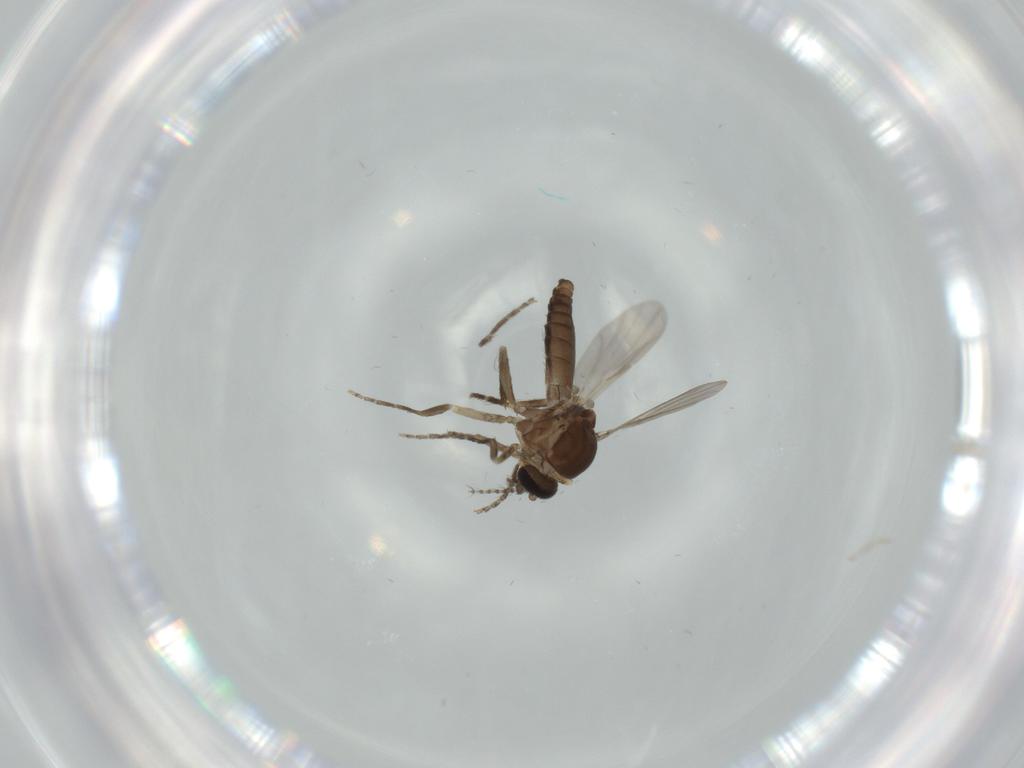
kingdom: Animalia
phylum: Arthropoda
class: Insecta
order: Diptera
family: Ceratopogonidae
